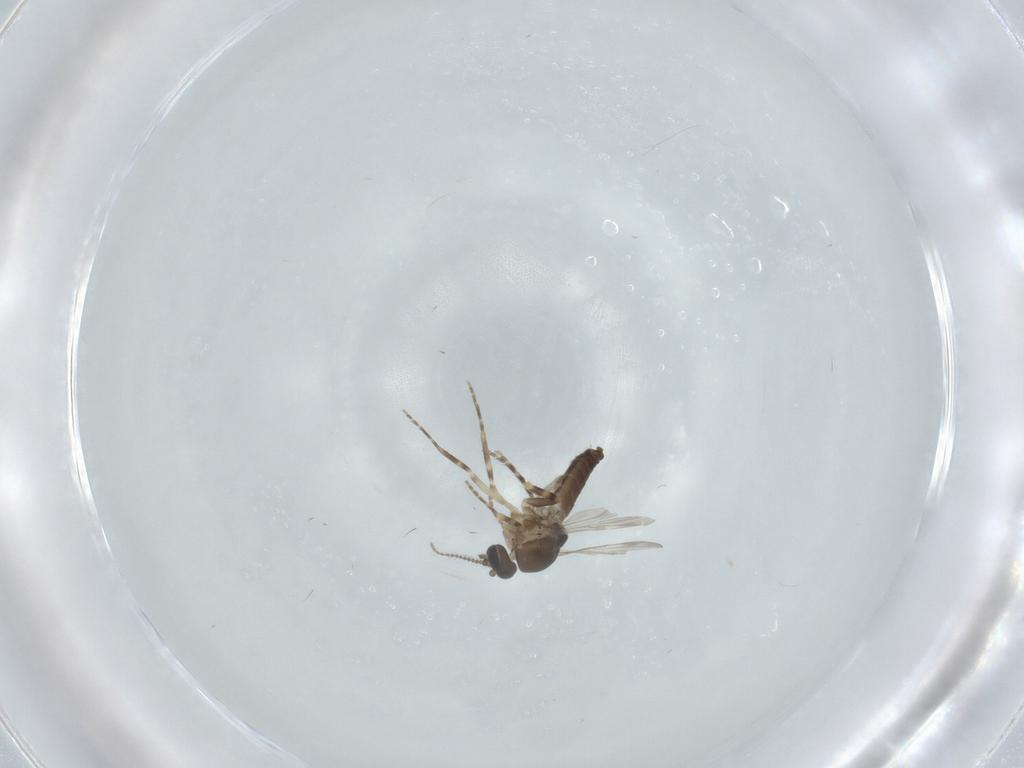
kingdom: Animalia
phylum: Arthropoda
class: Insecta
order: Diptera
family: Ceratopogonidae
